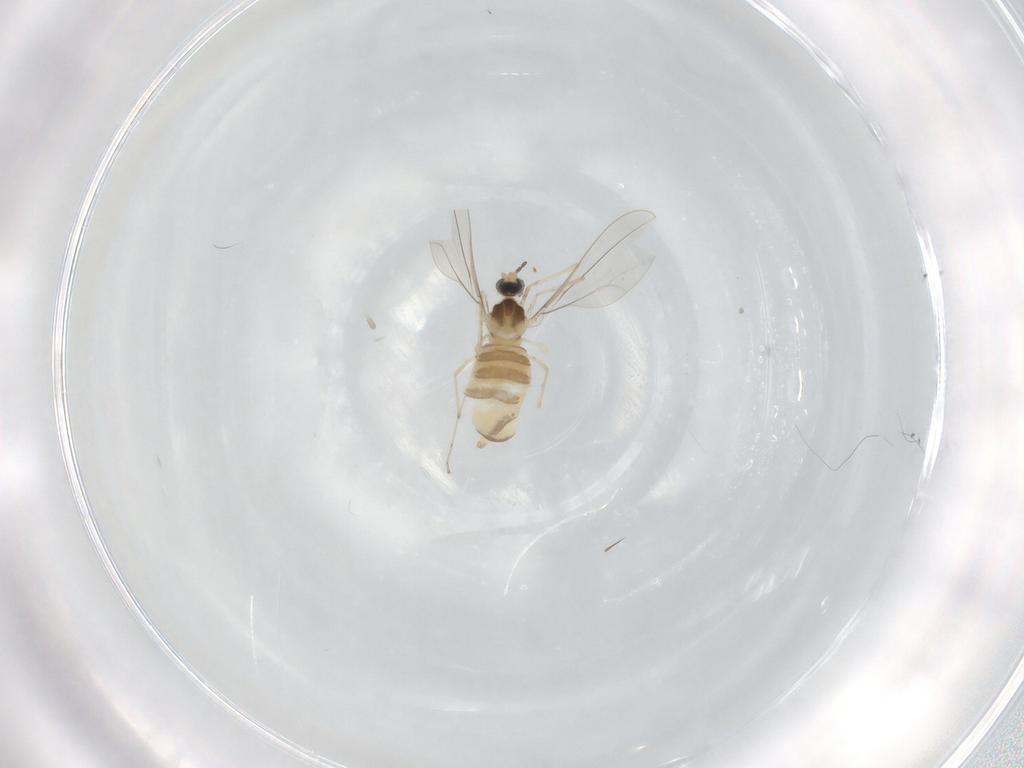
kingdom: Animalia
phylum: Arthropoda
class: Insecta
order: Diptera
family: Cecidomyiidae
